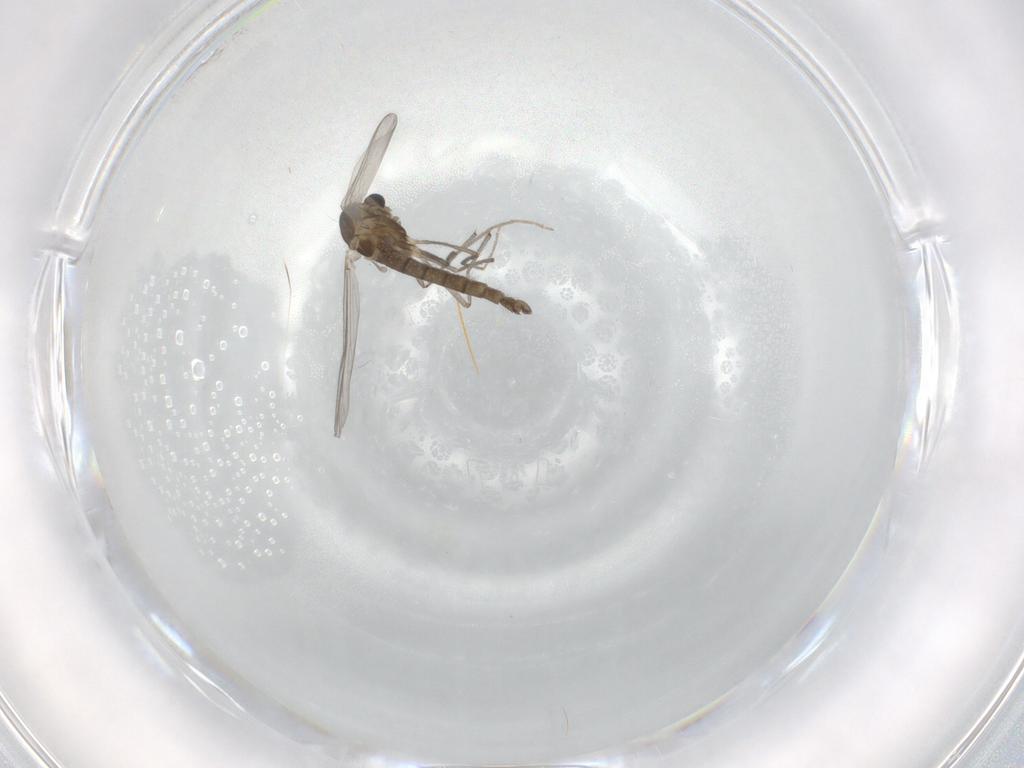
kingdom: Animalia
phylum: Arthropoda
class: Insecta
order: Diptera
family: Chironomidae
